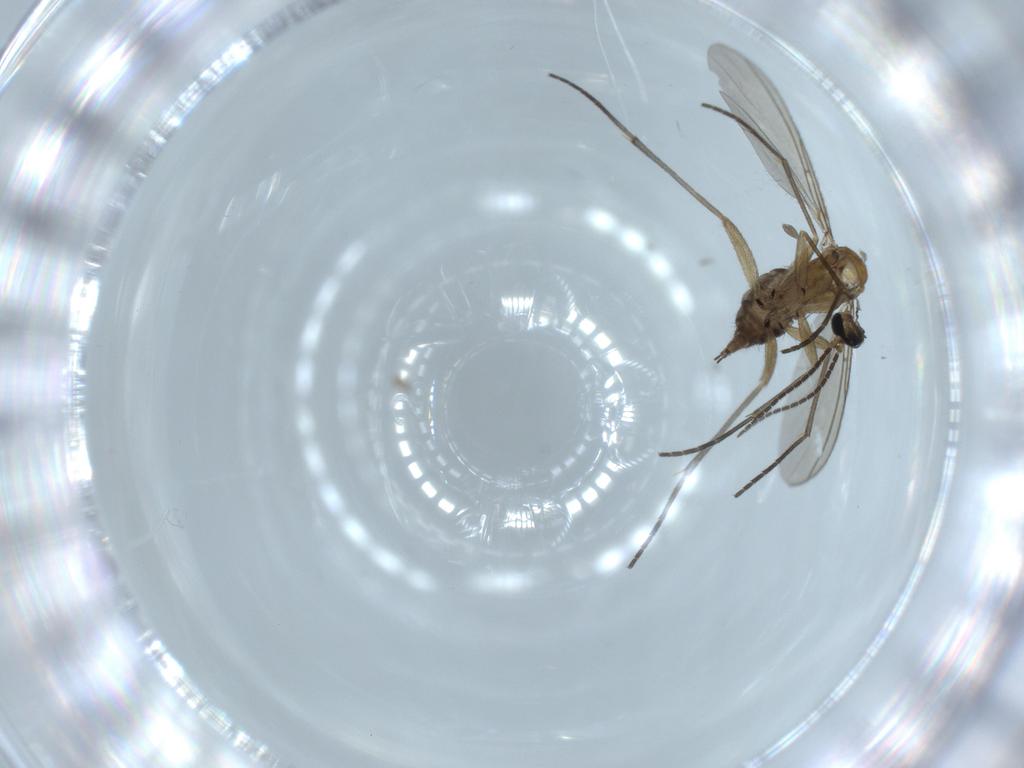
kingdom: Animalia
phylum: Arthropoda
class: Insecta
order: Diptera
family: Sciaridae
